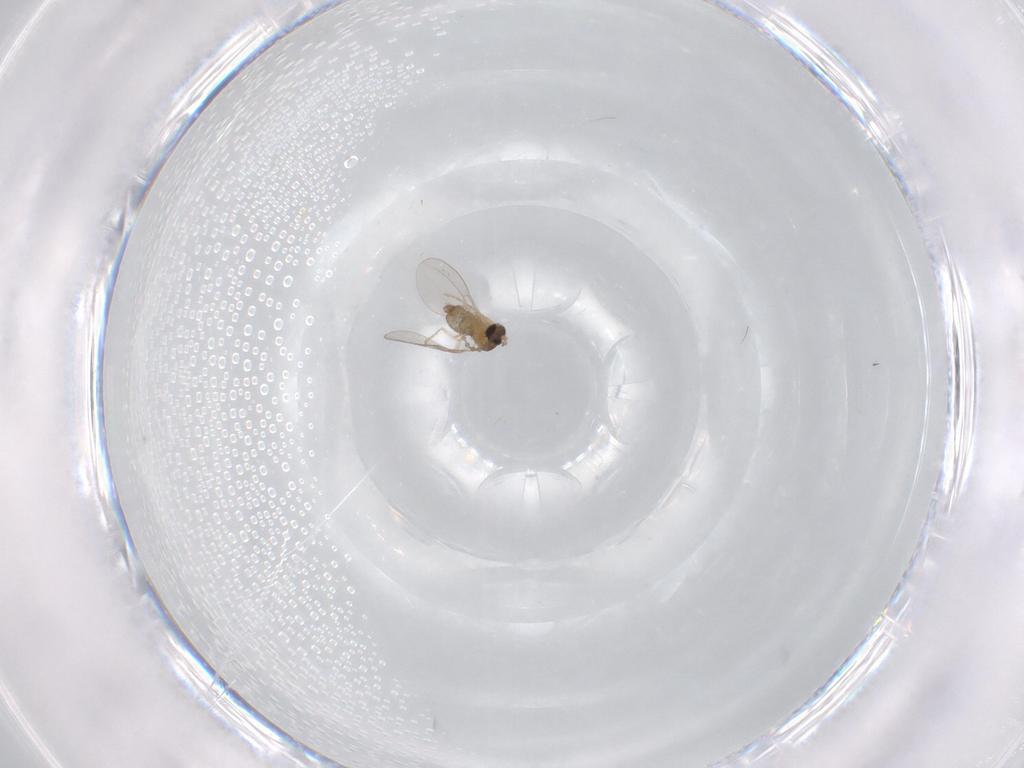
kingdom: Animalia
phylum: Arthropoda
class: Insecta
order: Diptera
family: Cecidomyiidae
